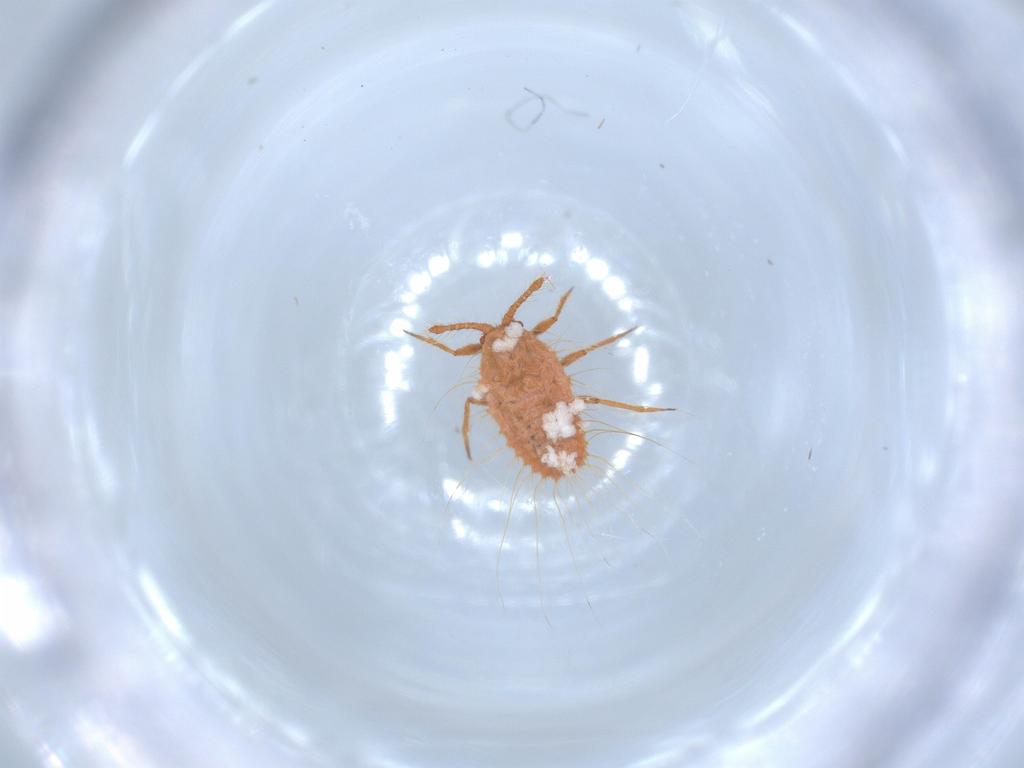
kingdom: Animalia
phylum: Arthropoda
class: Insecta
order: Hemiptera
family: Coccoidea_incertae_sedis
